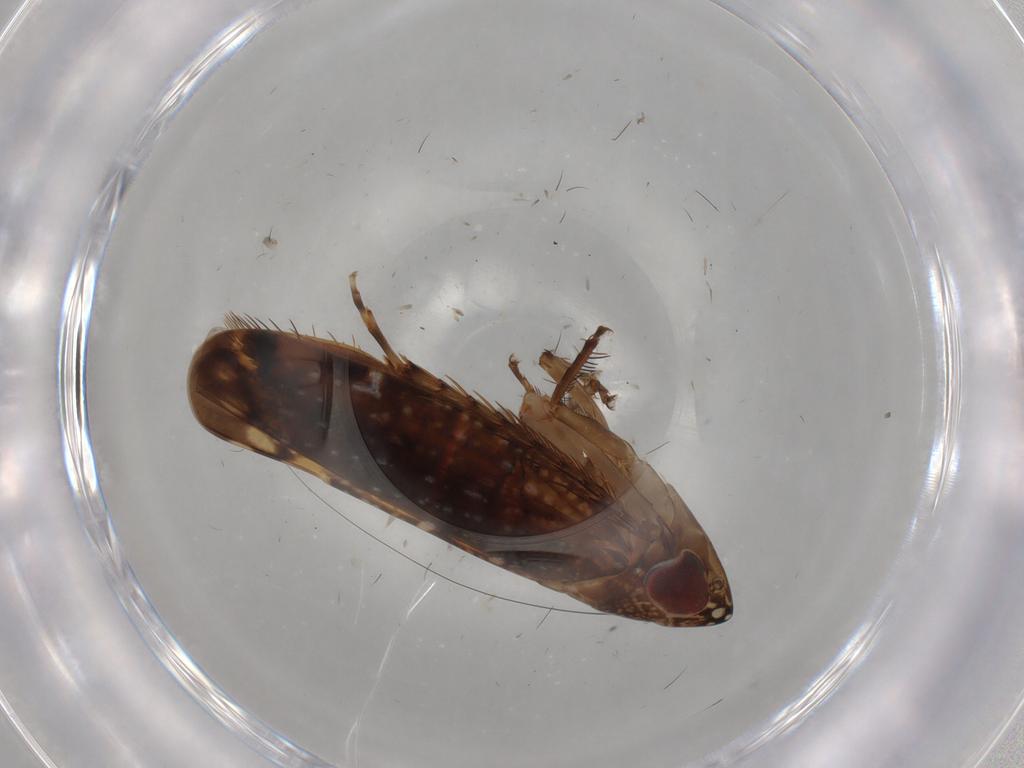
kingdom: Animalia
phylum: Arthropoda
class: Insecta
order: Hemiptera
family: Cicadellidae
